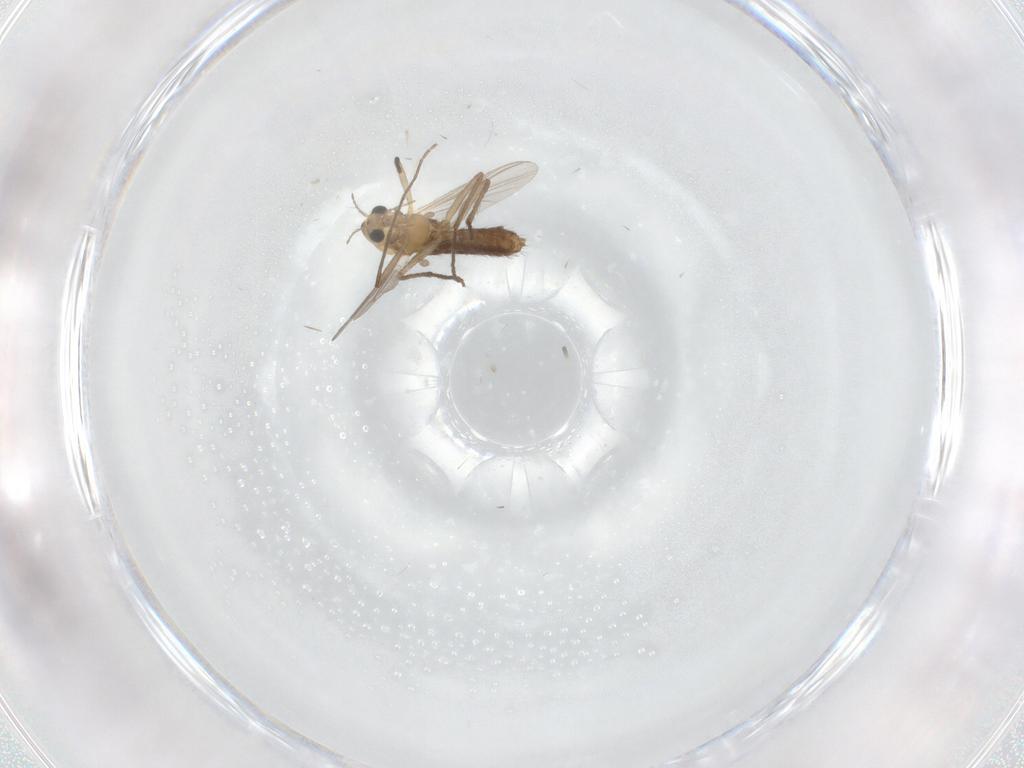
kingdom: Animalia
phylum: Arthropoda
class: Insecta
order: Diptera
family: Chironomidae
